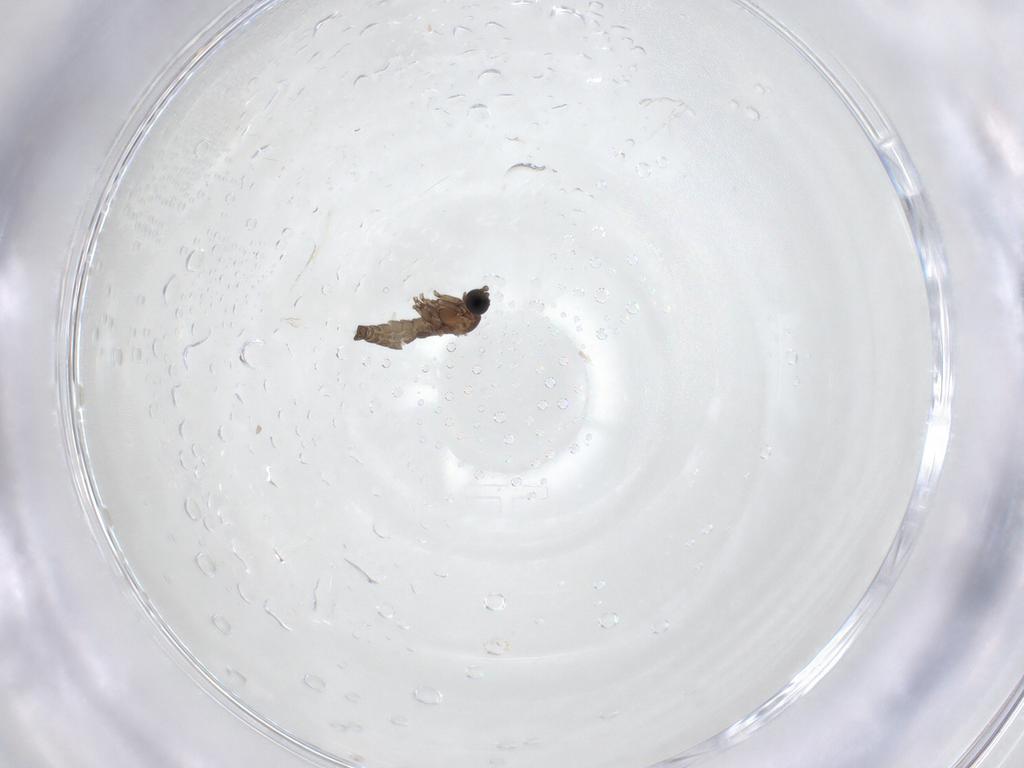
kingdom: Animalia
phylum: Arthropoda
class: Insecta
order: Diptera
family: Sciaridae
